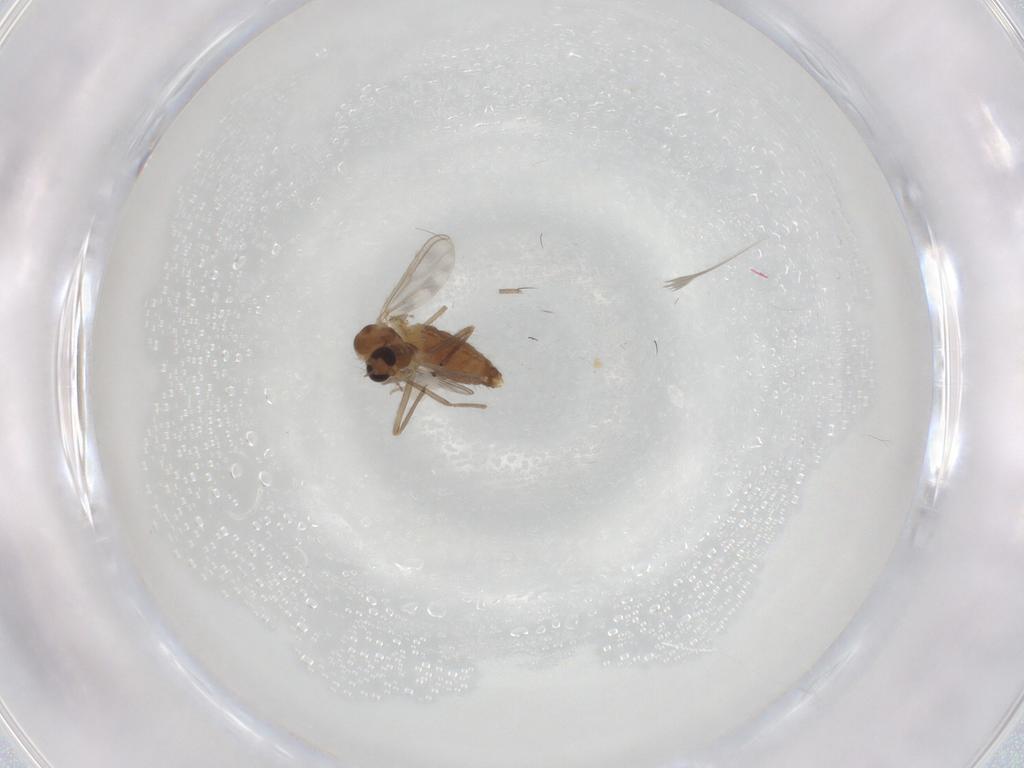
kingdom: Animalia
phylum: Arthropoda
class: Insecta
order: Diptera
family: Chironomidae
